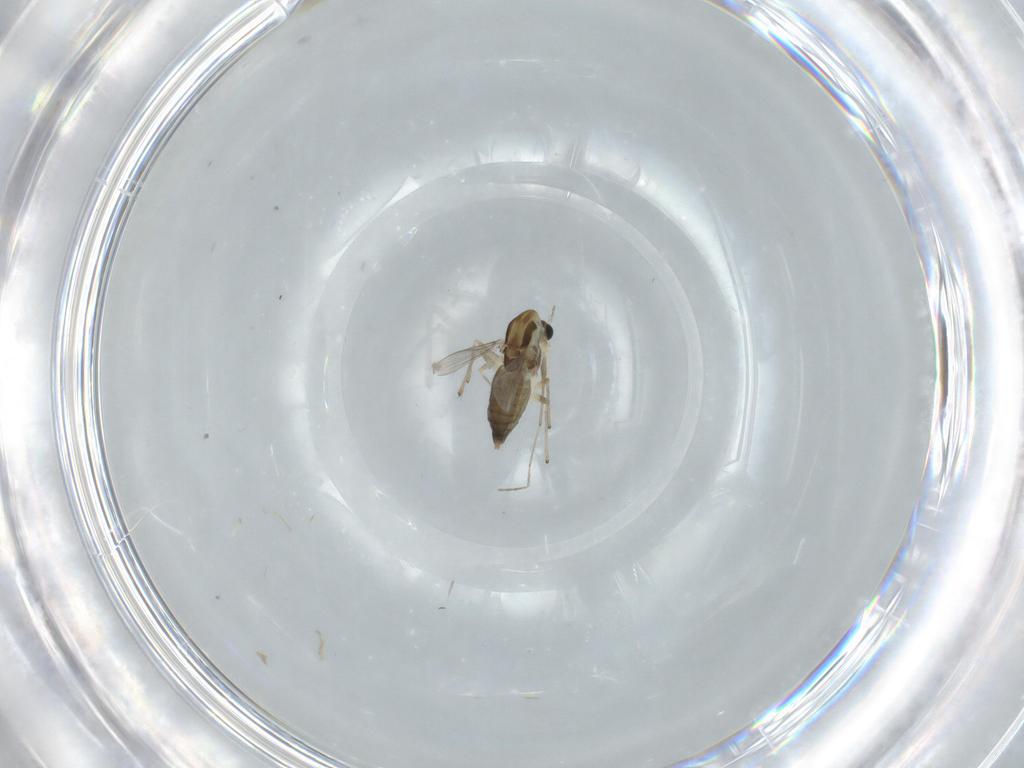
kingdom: Animalia
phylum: Arthropoda
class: Insecta
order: Diptera
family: Chironomidae
